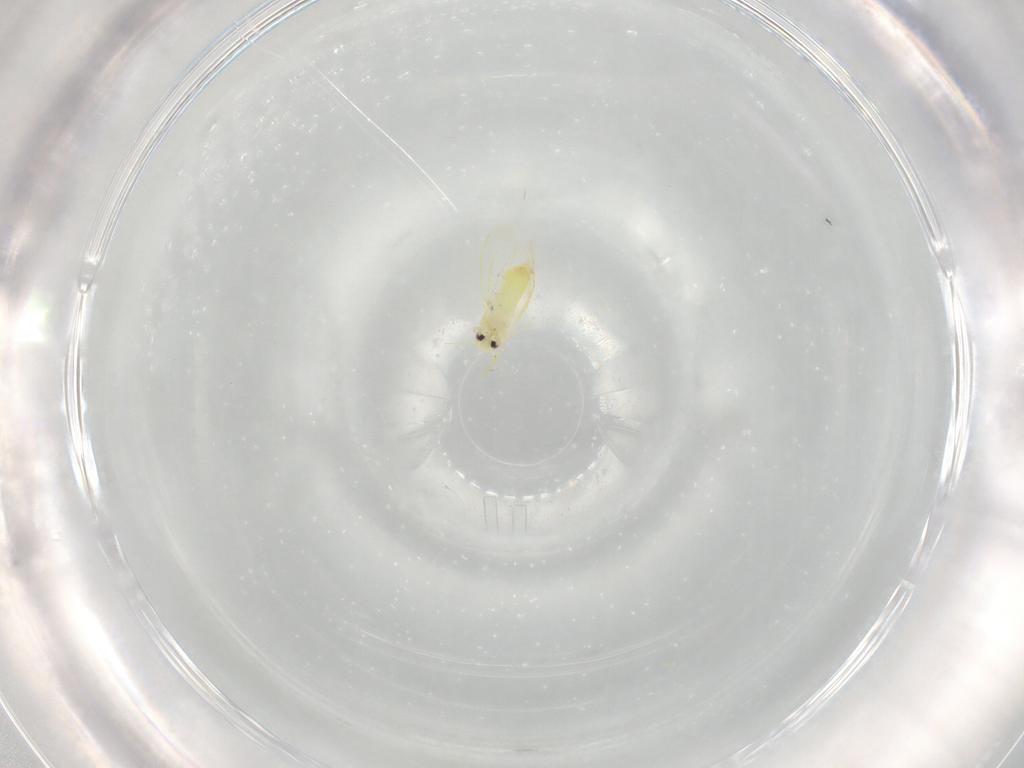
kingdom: Animalia
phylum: Arthropoda
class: Insecta
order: Hemiptera
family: Aleyrodidae
